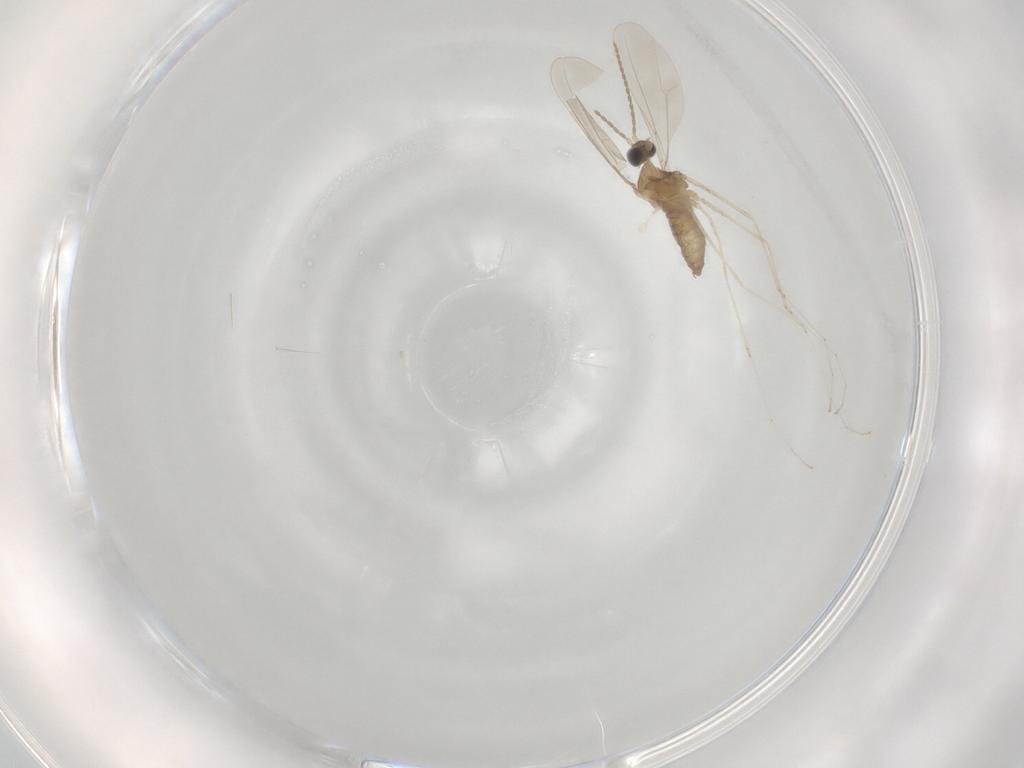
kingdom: Animalia
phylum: Arthropoda
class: Insecta
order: Diptera
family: Cecidomyiidae
